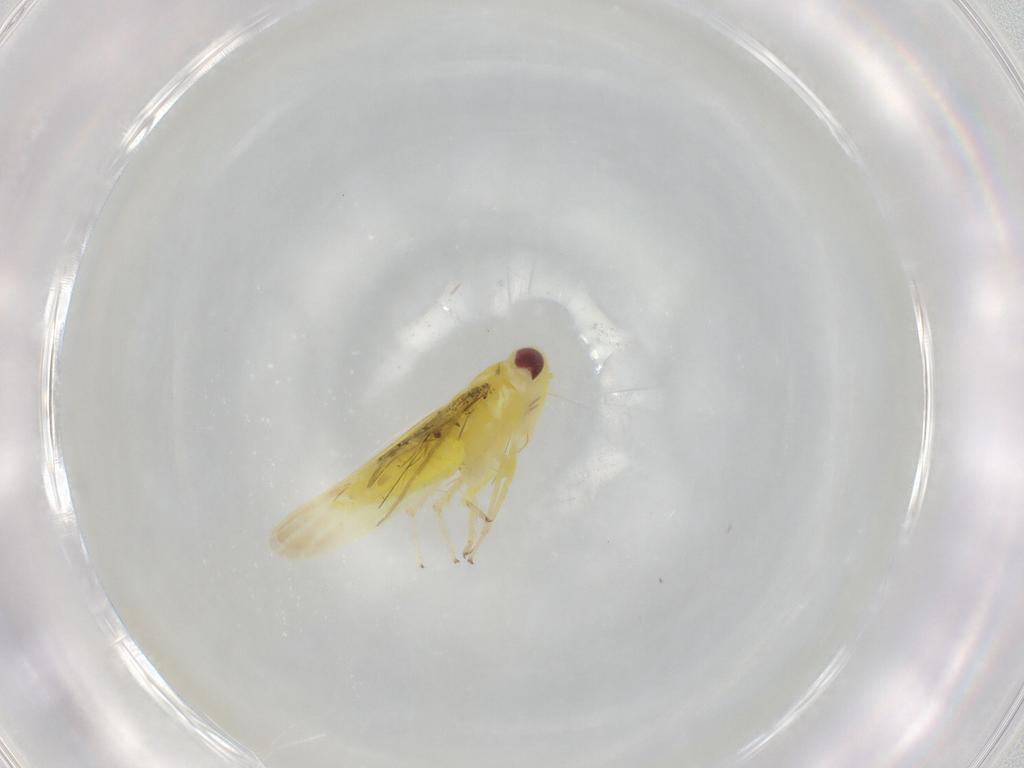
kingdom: Animalia
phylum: Arthropoda
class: Insecta
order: Hemiptera
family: Cicadellidae
